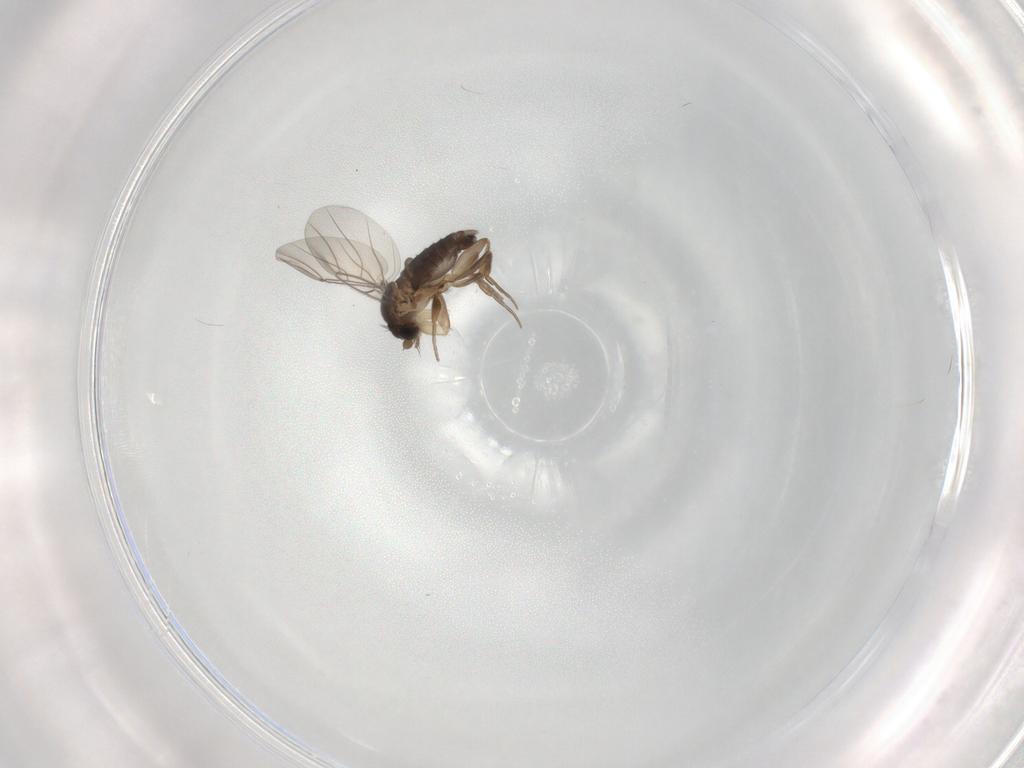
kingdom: Animalia
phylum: Arthropoda
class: Insecta
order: Diptera
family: Phoridae
